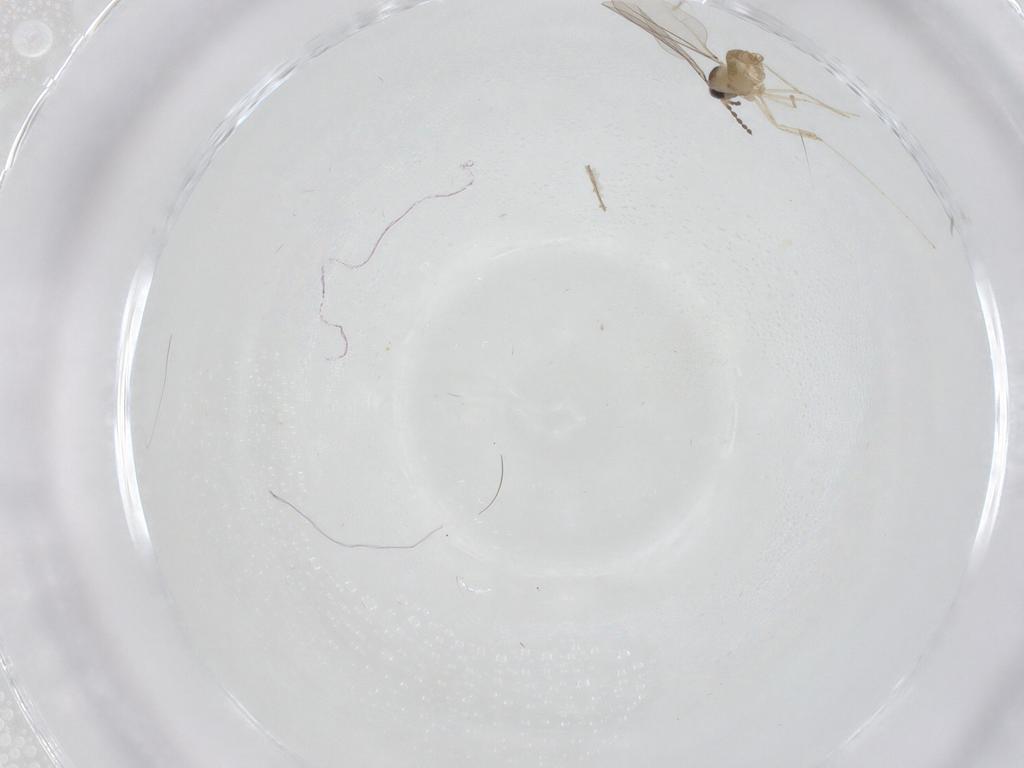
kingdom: Animalia
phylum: Arthropoda
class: Insecta
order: Diptera
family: Cecidomyiidae
